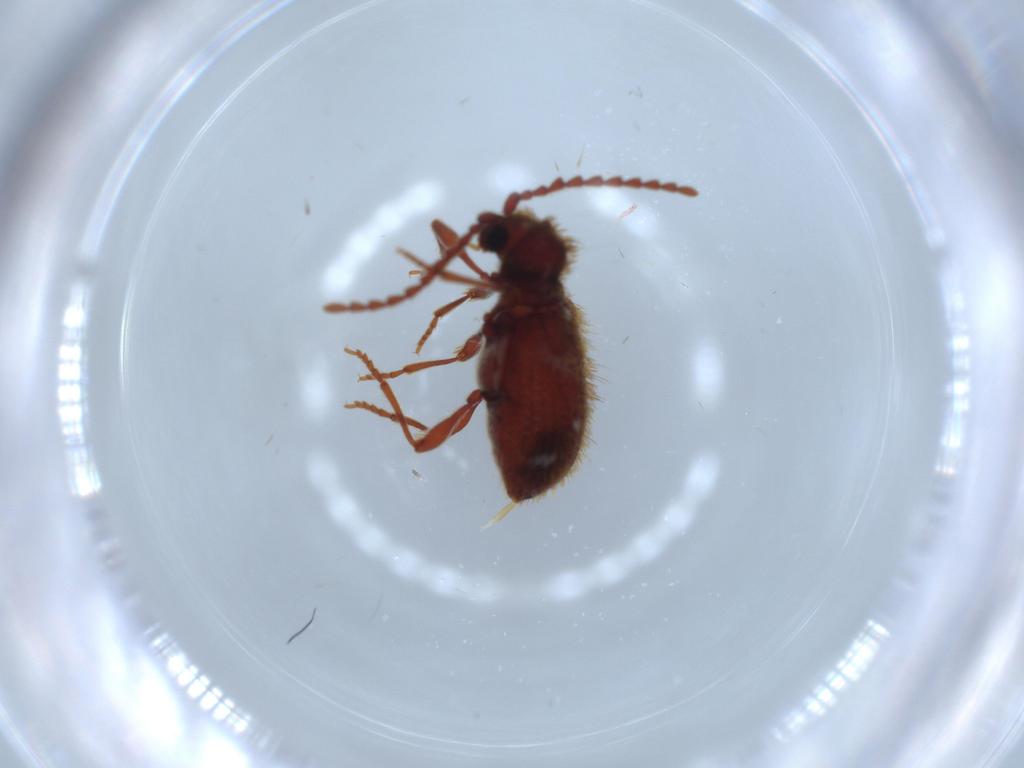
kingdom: Animalia
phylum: Arthropoda
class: Insecta
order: Coleoptera
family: Ptinidae
